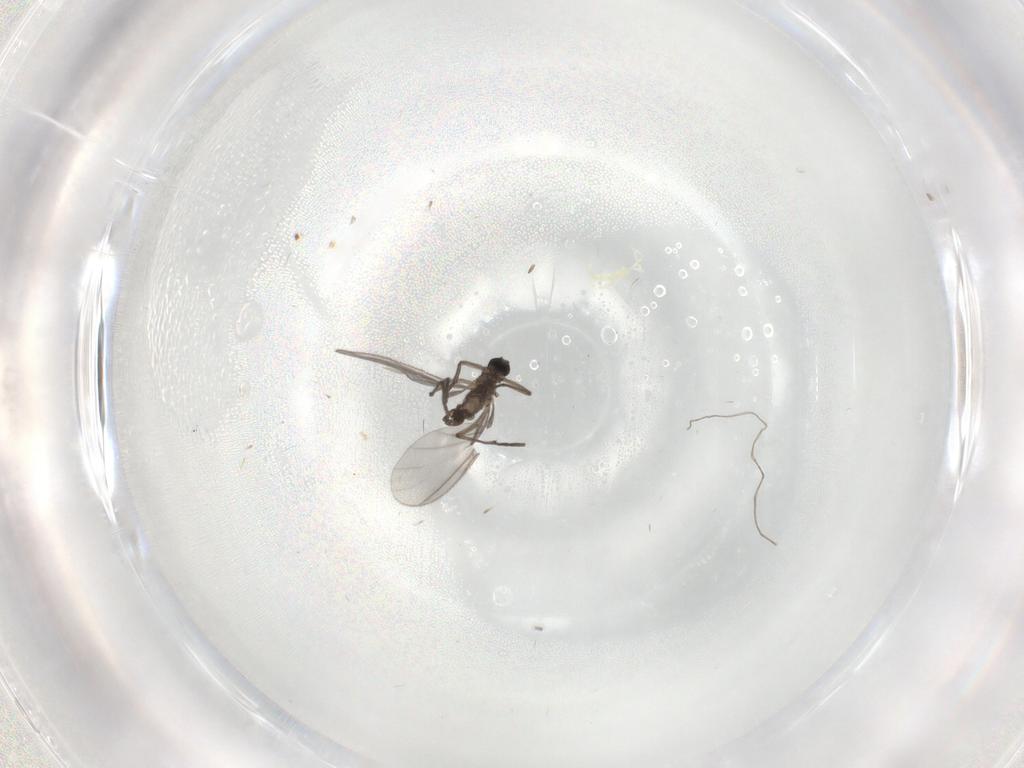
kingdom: Animalia
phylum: Arthropoda
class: Insecta
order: Diptera
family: Sciaridae
